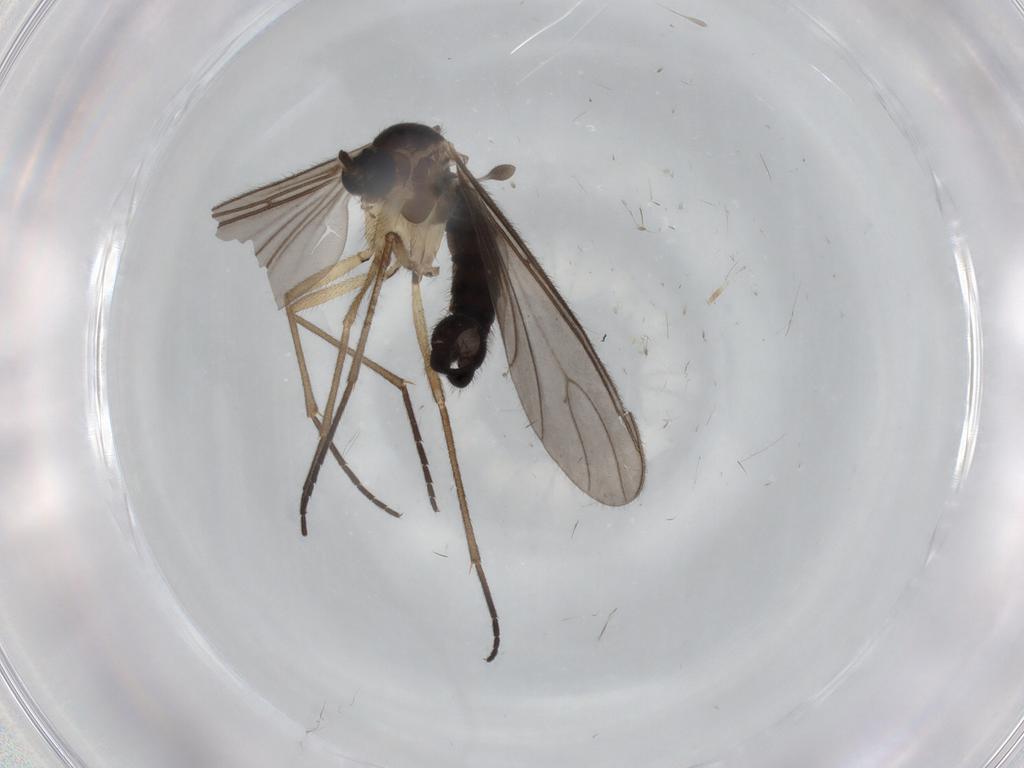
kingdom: Animalia
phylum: Arthropoda
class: Insecta
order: Diptera
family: Sciaridae
